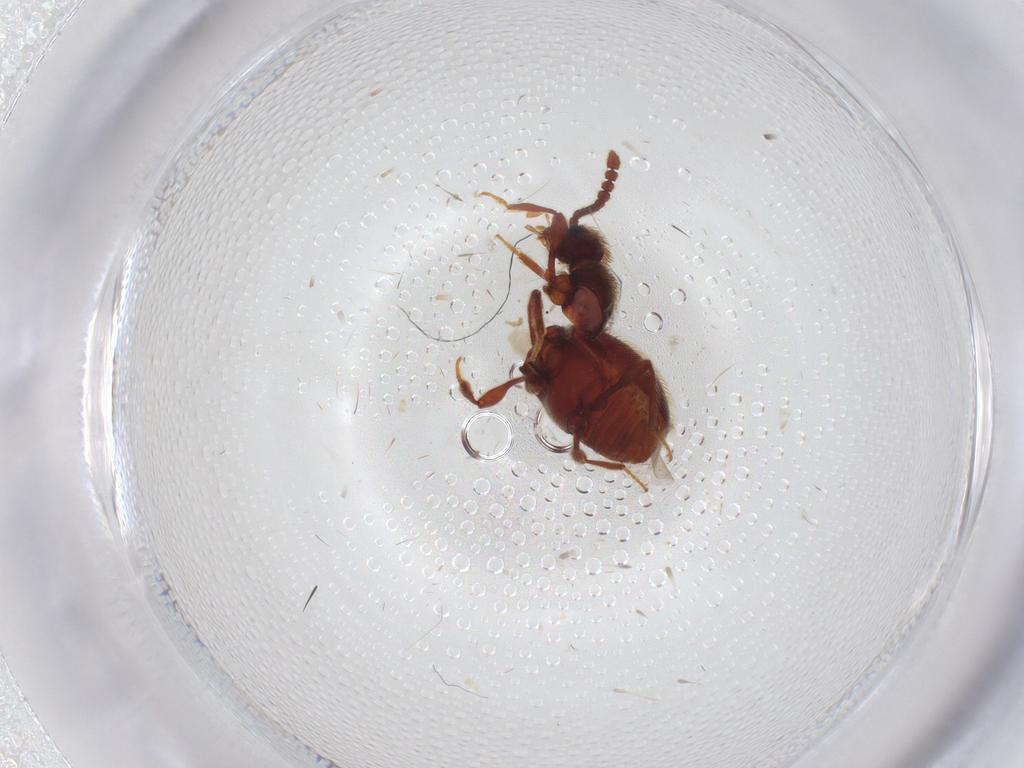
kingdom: Animalia
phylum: Arthropoda
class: Insecta
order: Coleoptera
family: Staphylinidae
